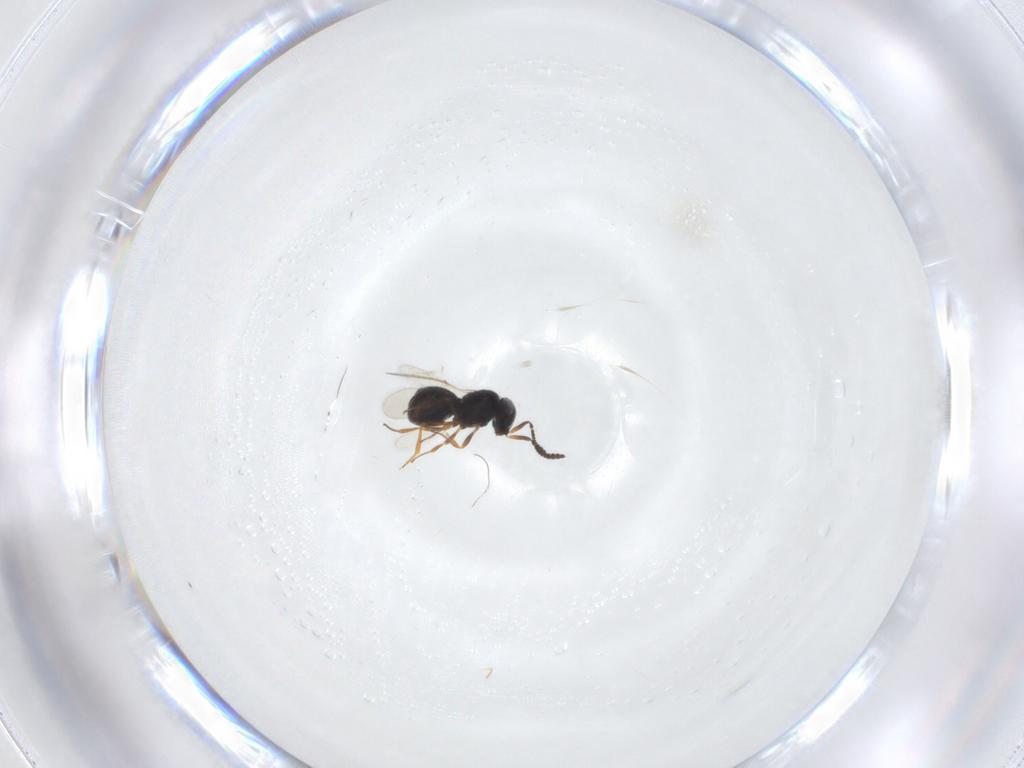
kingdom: Animalia
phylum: Arthropoda
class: Insecta
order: Hymenoptera
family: Scelionidae
